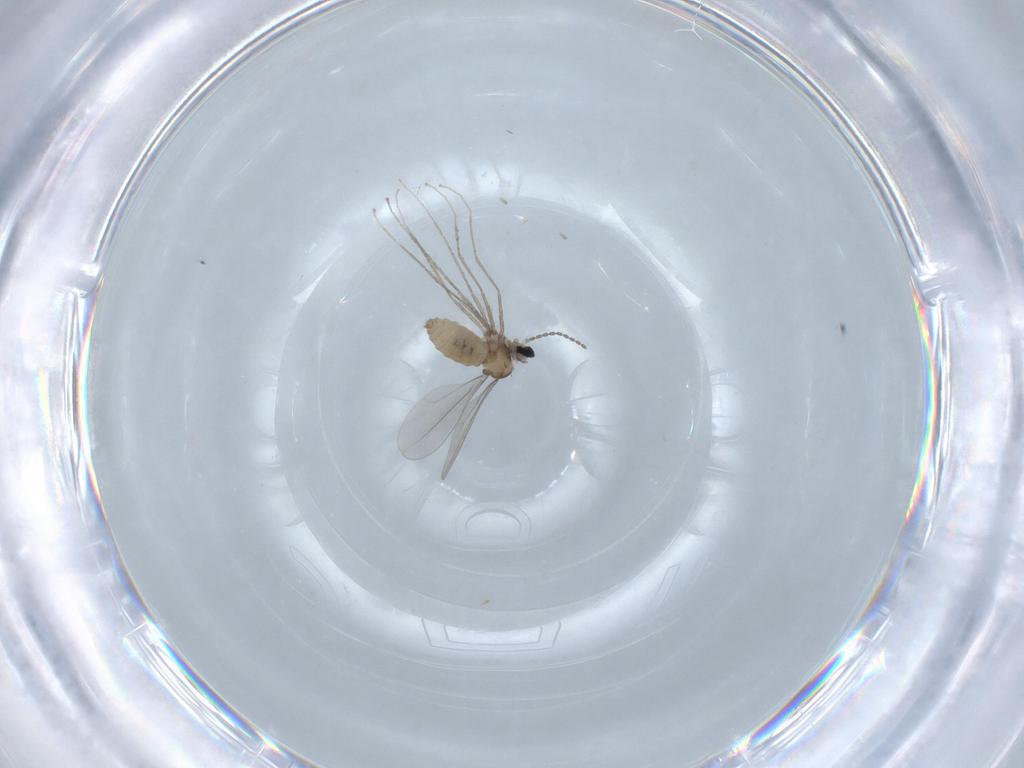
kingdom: Animalia
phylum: Arthropoda
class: Insecta
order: Diptera
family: Cecidomyiidae
